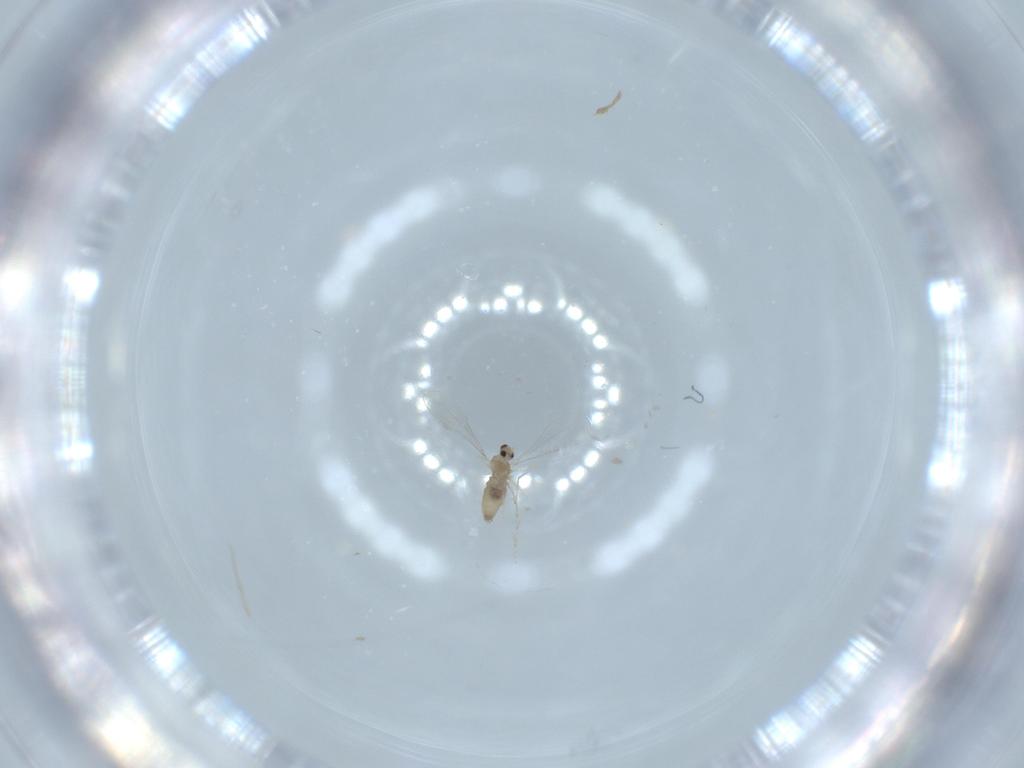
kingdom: Animalia
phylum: Arthropoda
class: Insecta
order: Diptera
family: Cecidomyiidae
